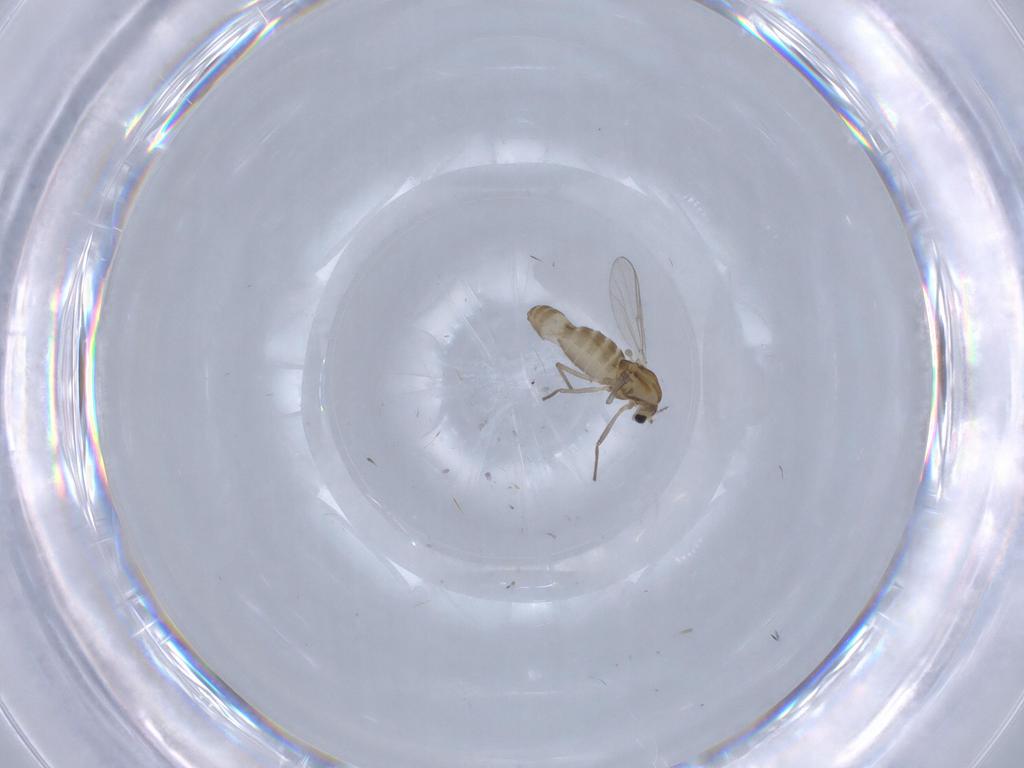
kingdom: Animalia
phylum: Arthropoda
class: Insecta
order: Diptera
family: Chironomidae
